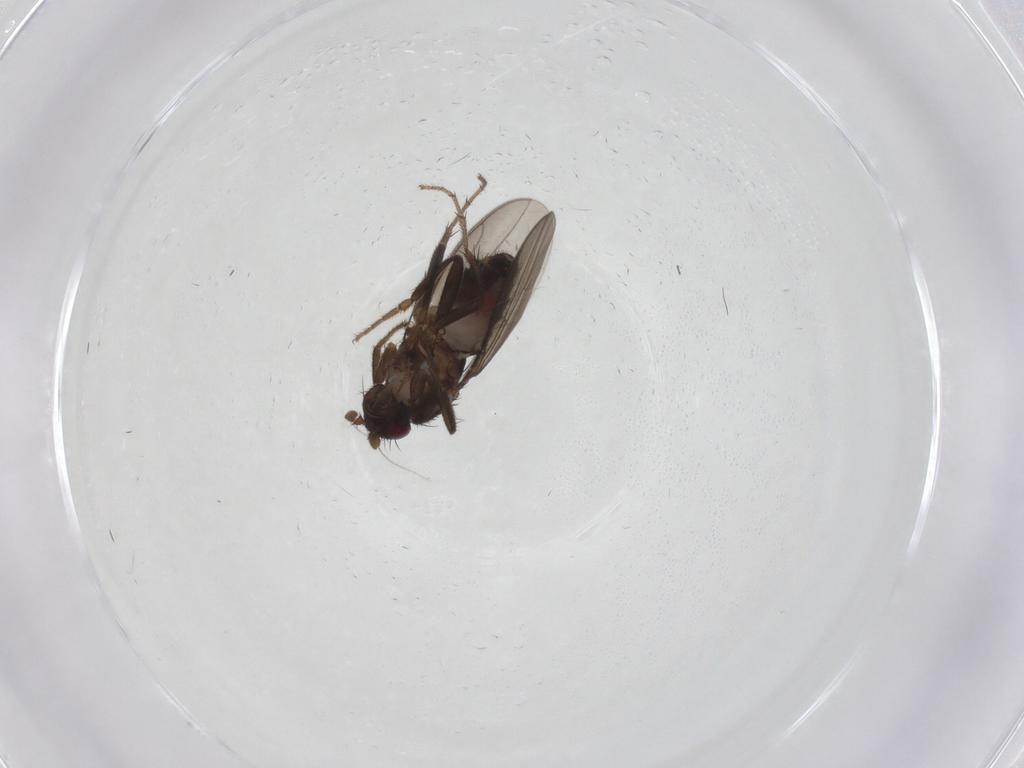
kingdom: Animalia
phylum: Arthropoda
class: Insecta
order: Diptera
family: Sphaeroceridae
